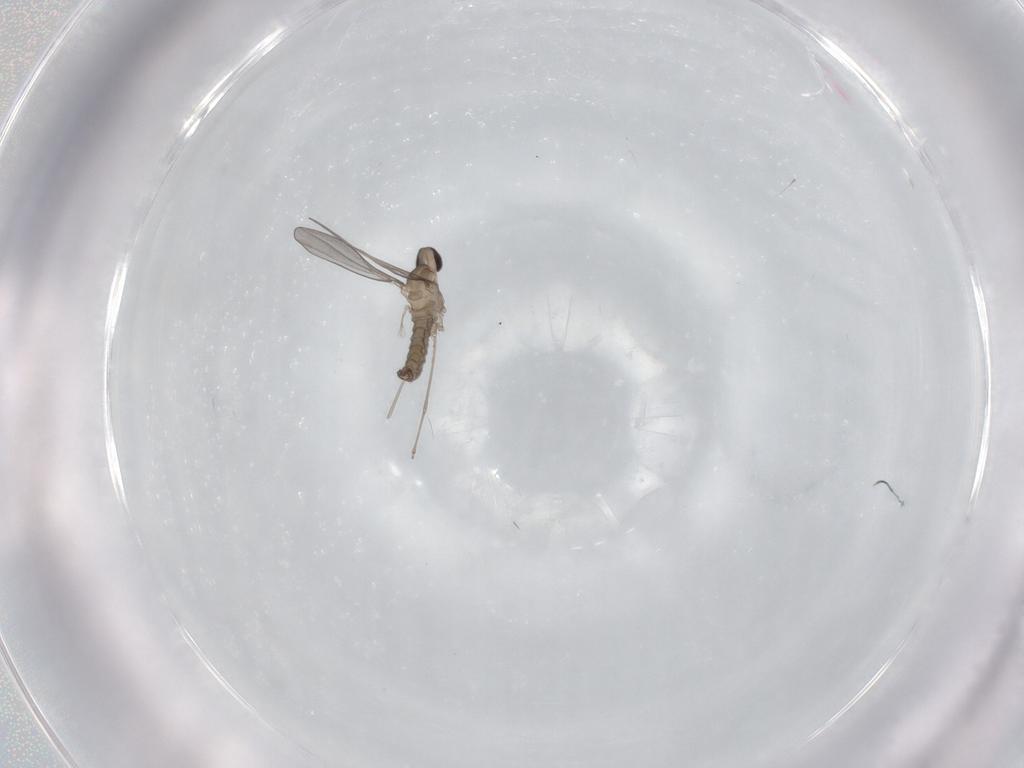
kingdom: Animalia
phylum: Arthropoda
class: Insecta
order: Diptera
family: Cecidomyiidae
